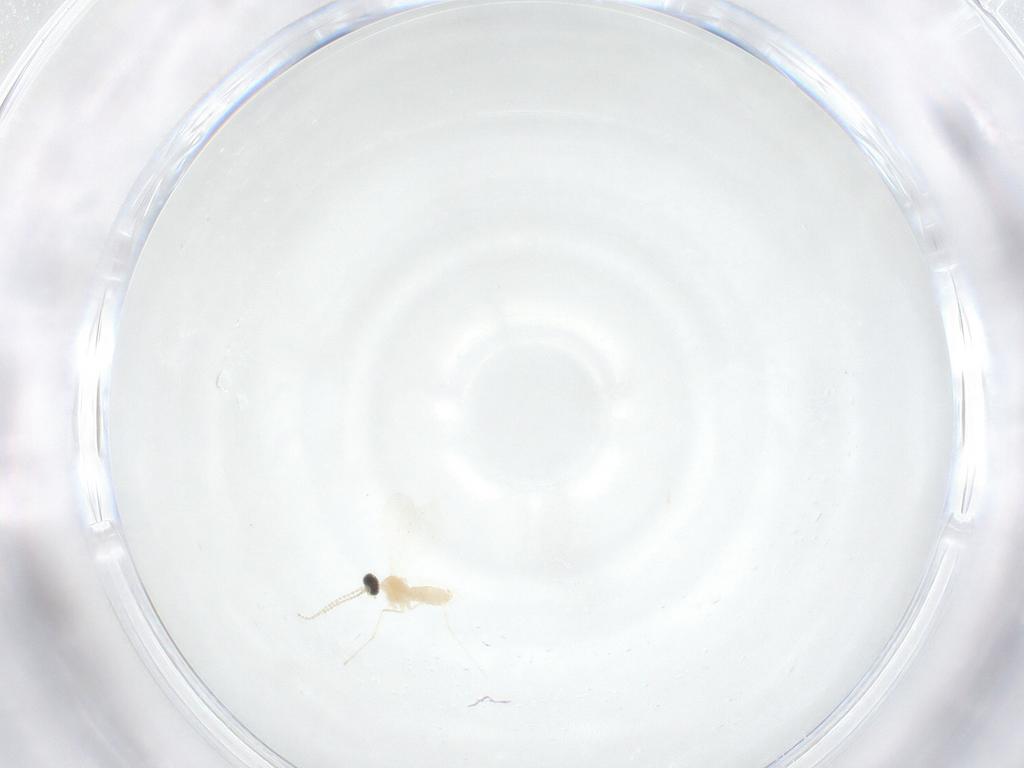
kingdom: Animalia
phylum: Arthropoda
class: Insecta
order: Diptera
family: Cecidomyiidae
